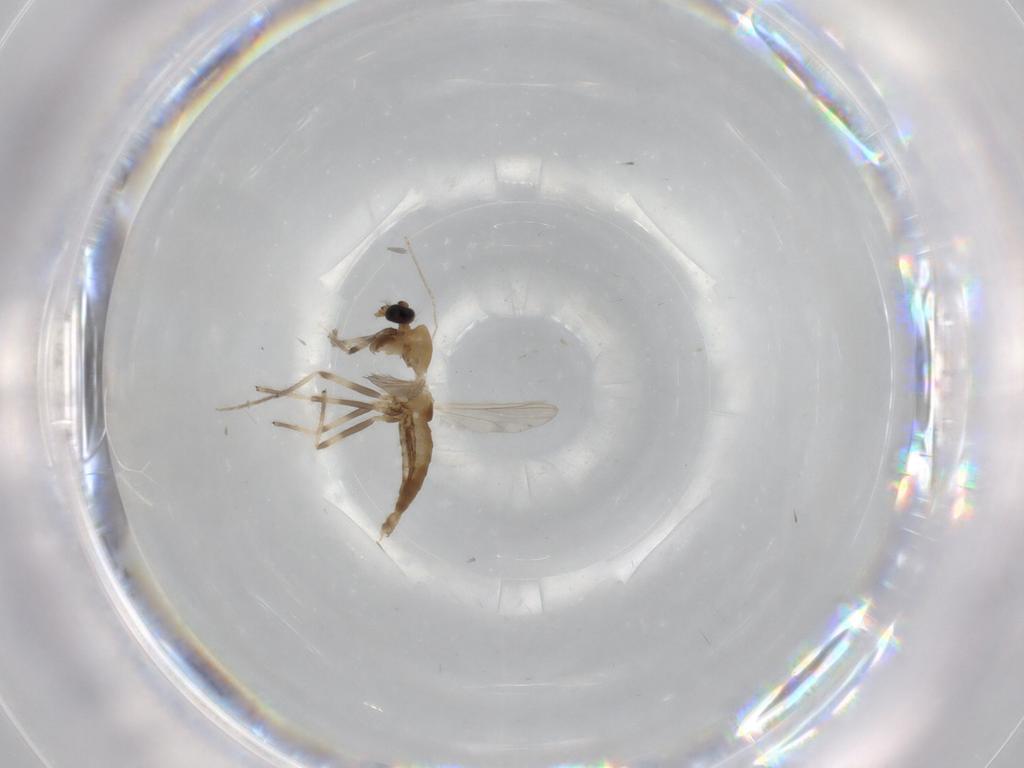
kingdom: Animalia
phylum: Arthropoda
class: Insecta
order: Diptera
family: Chironomidae
